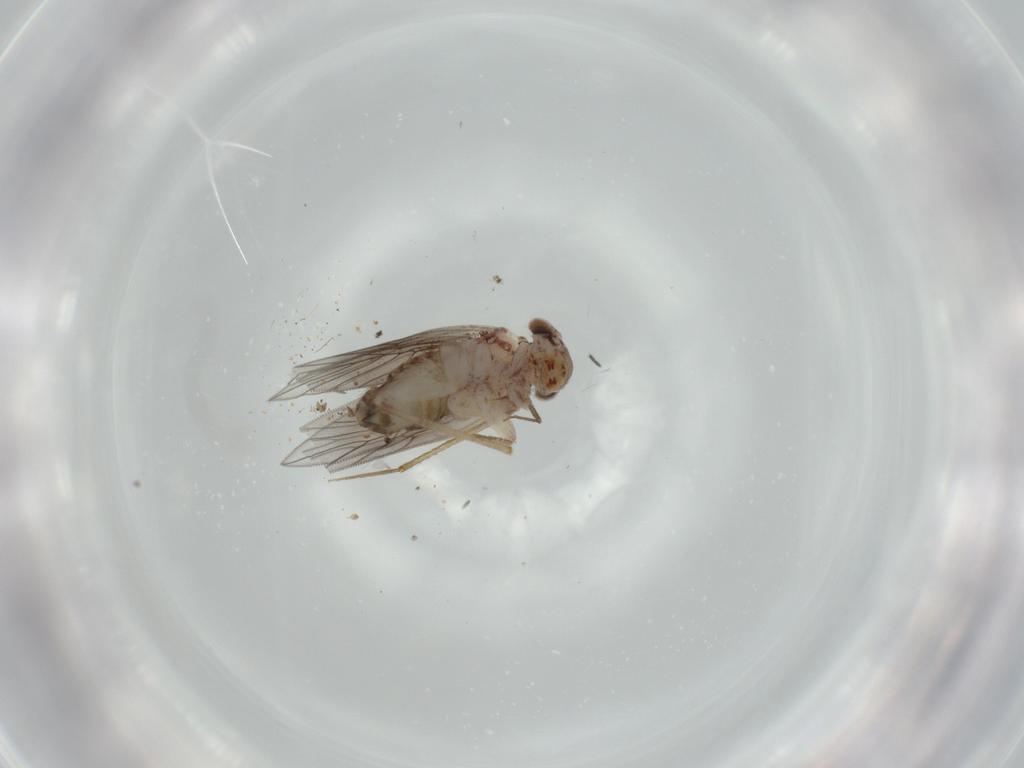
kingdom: Animalia
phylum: Arthropoda
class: Insecta
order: Psocodea
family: Lepidopsocidae
